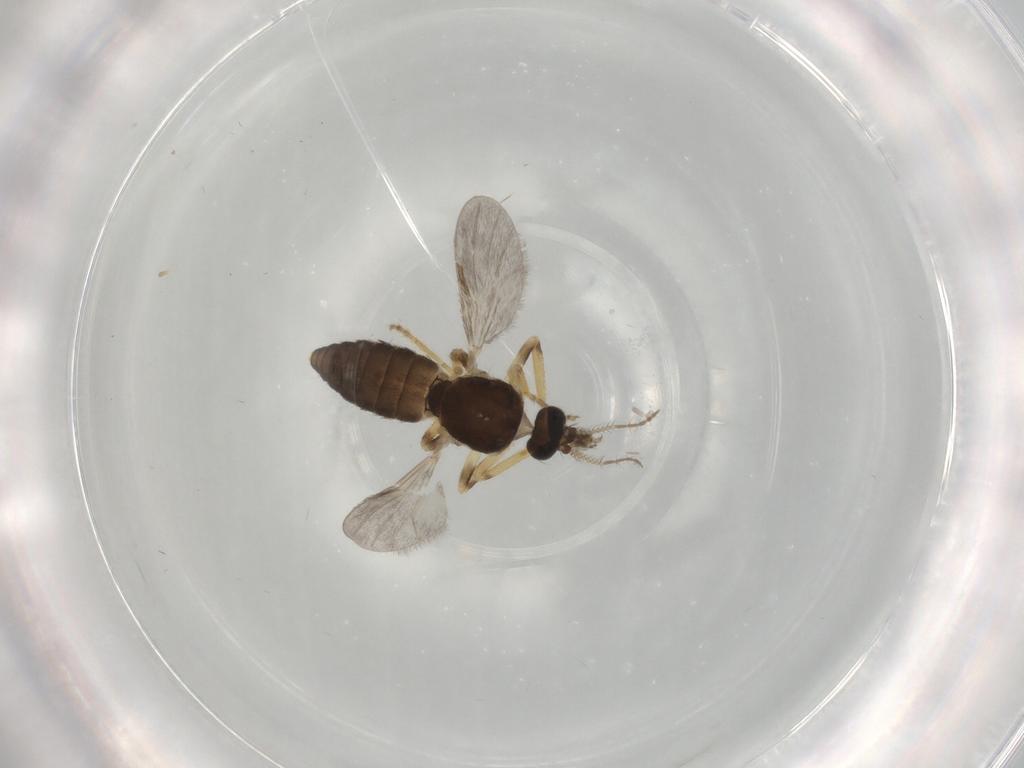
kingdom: Animalia
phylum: Arthropoda
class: Insecta
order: Diptera
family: Ceratopogonidae
